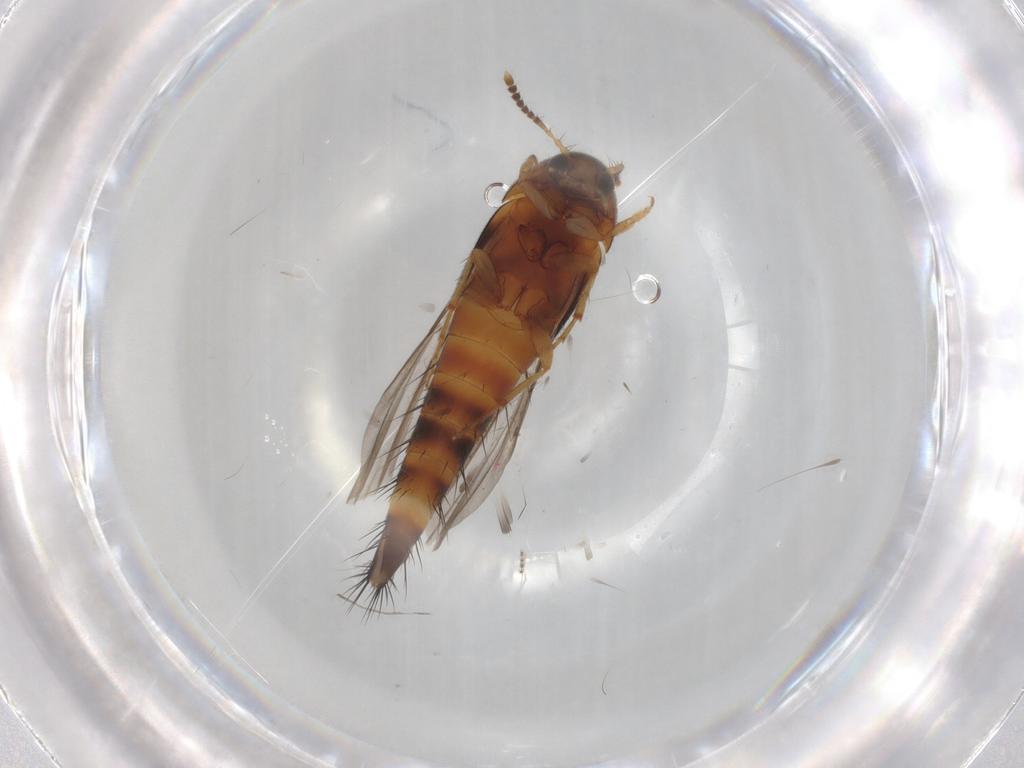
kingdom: Animalia
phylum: Arthropoda
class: Insecta
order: Coleoptera
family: Staphylinidae
